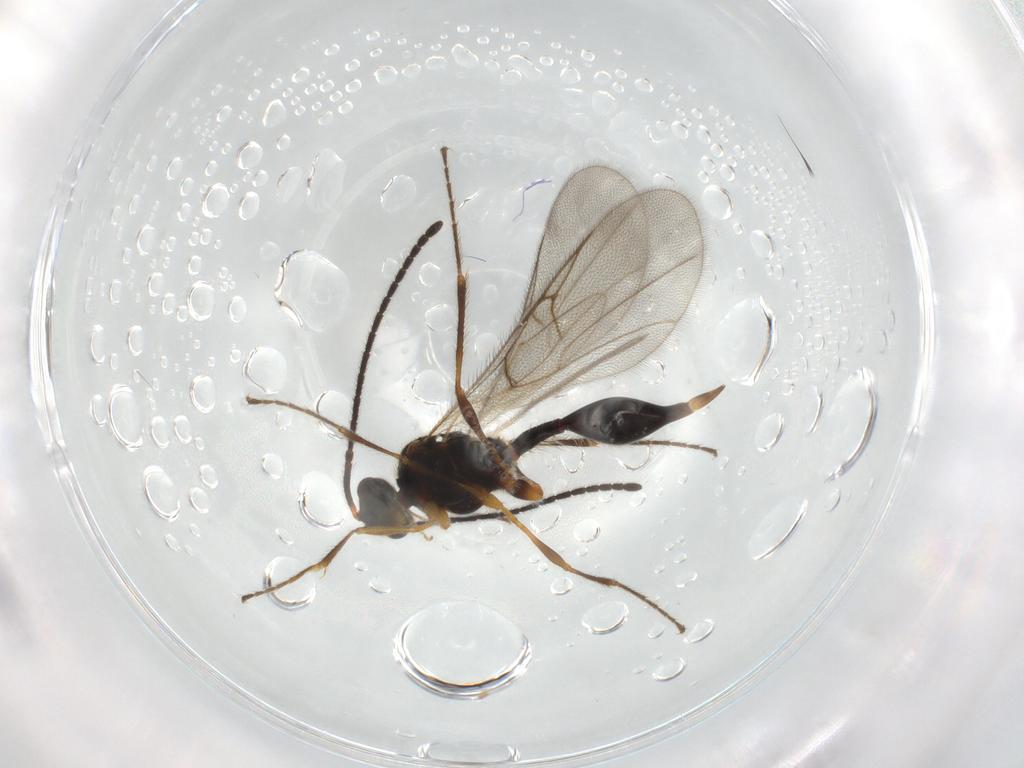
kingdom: Animalia
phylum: Arthropoda
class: Insecta
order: Hymenoptera
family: Diapriidae
